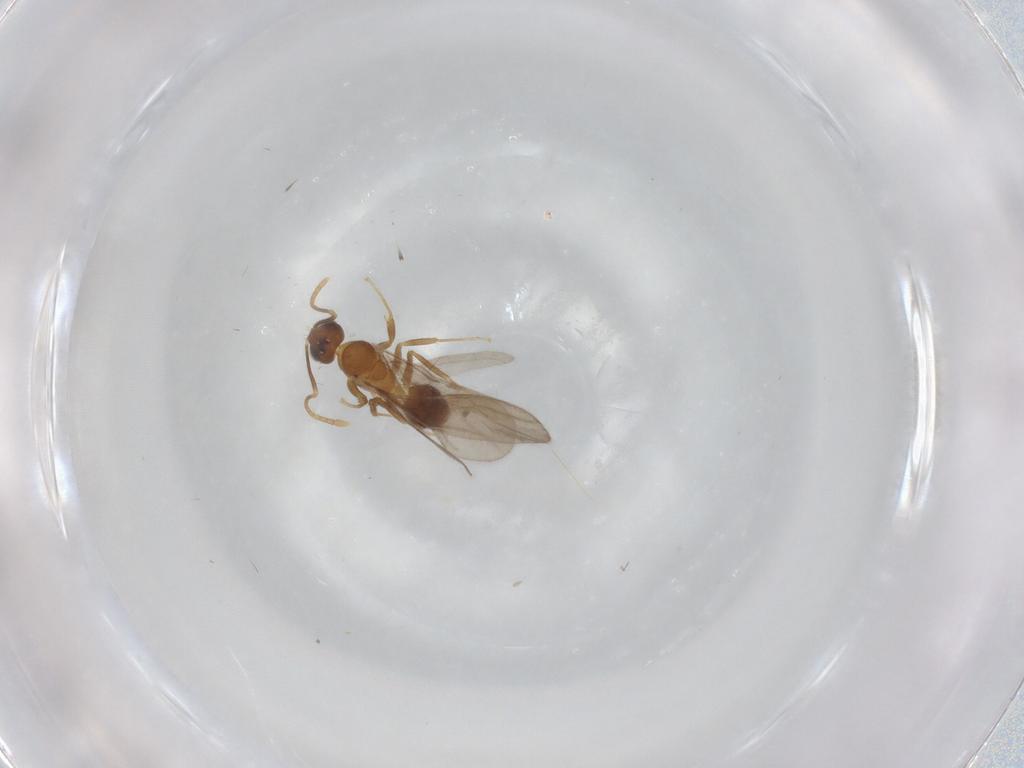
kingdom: Animalia
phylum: Arthropoda
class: Insecta
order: Hymenoptera
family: Formicidae
